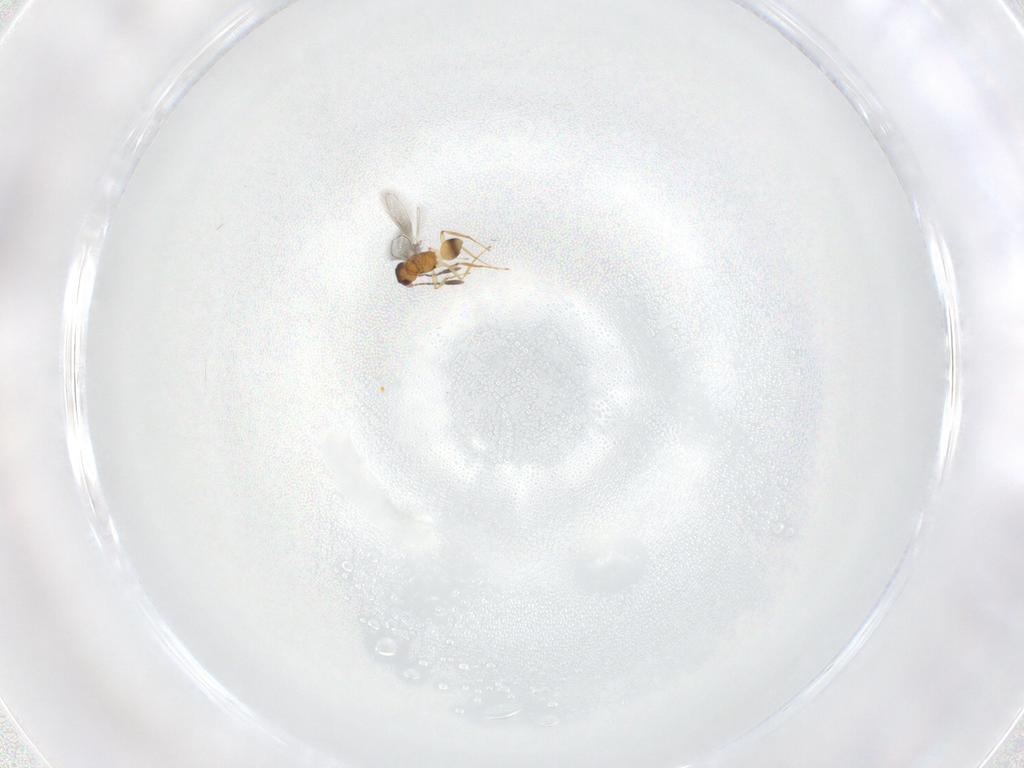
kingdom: Animalia
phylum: Arthropoda
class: Insecta
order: Hymenoptera
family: Mymaridae
